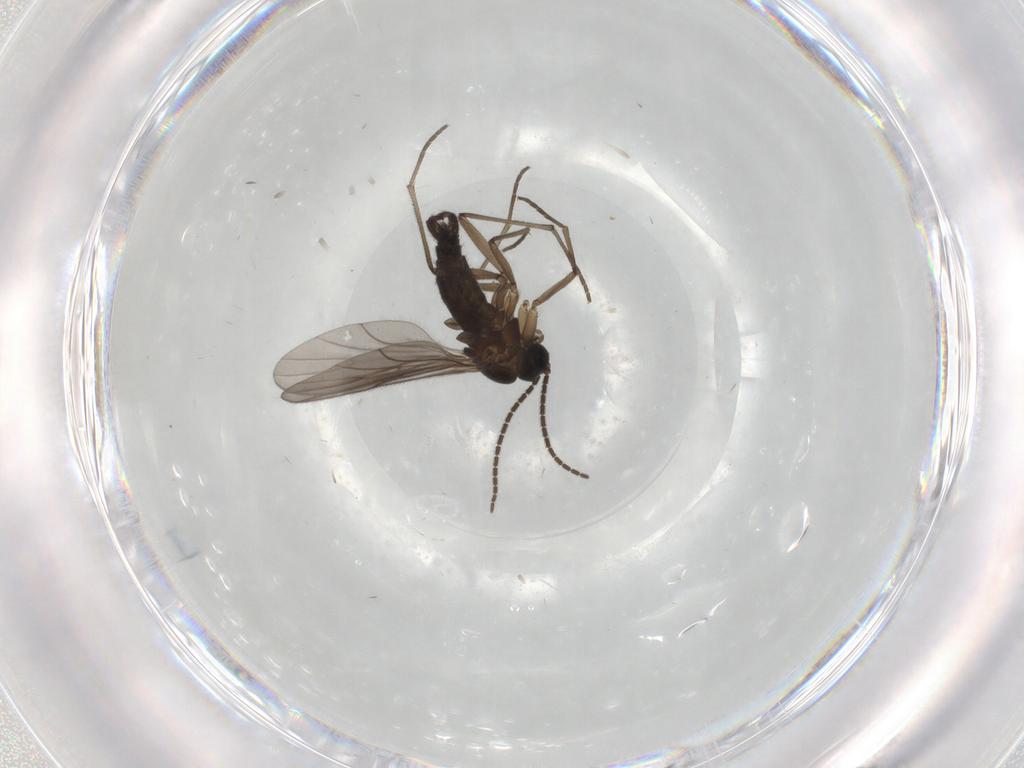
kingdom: Animalia
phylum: Arthropoda
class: Insecta
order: Diptera
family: Sciaridae
